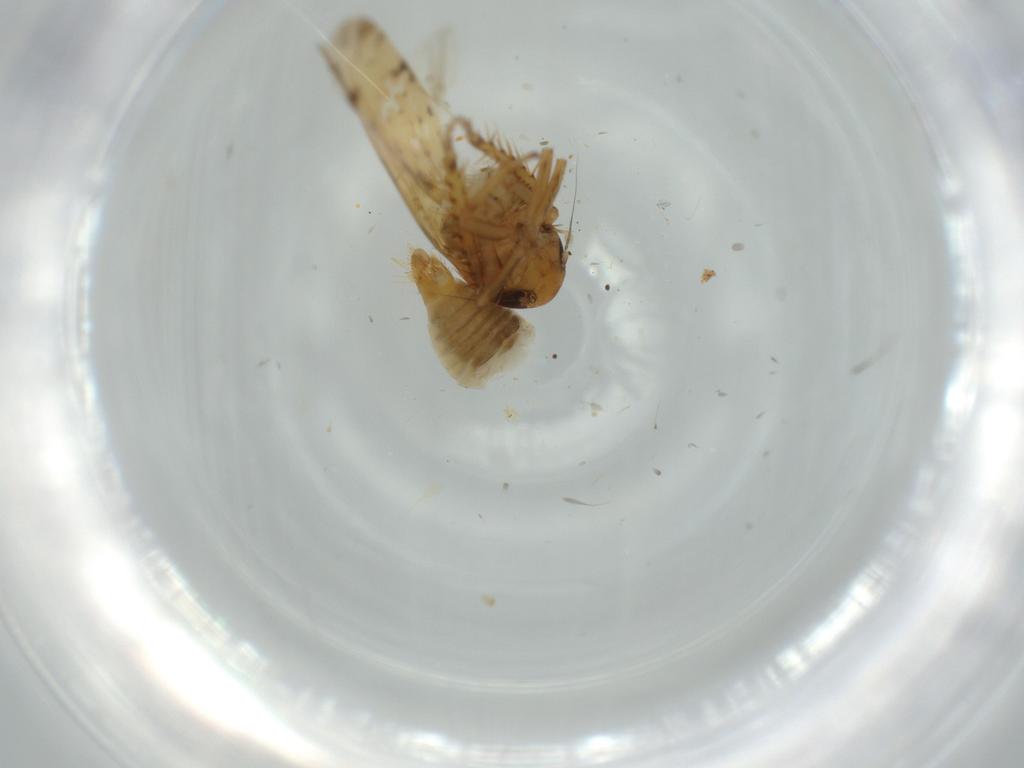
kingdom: Animalia
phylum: Arthropoda
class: Insecta
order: Hemiptera
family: Cicadellidae
